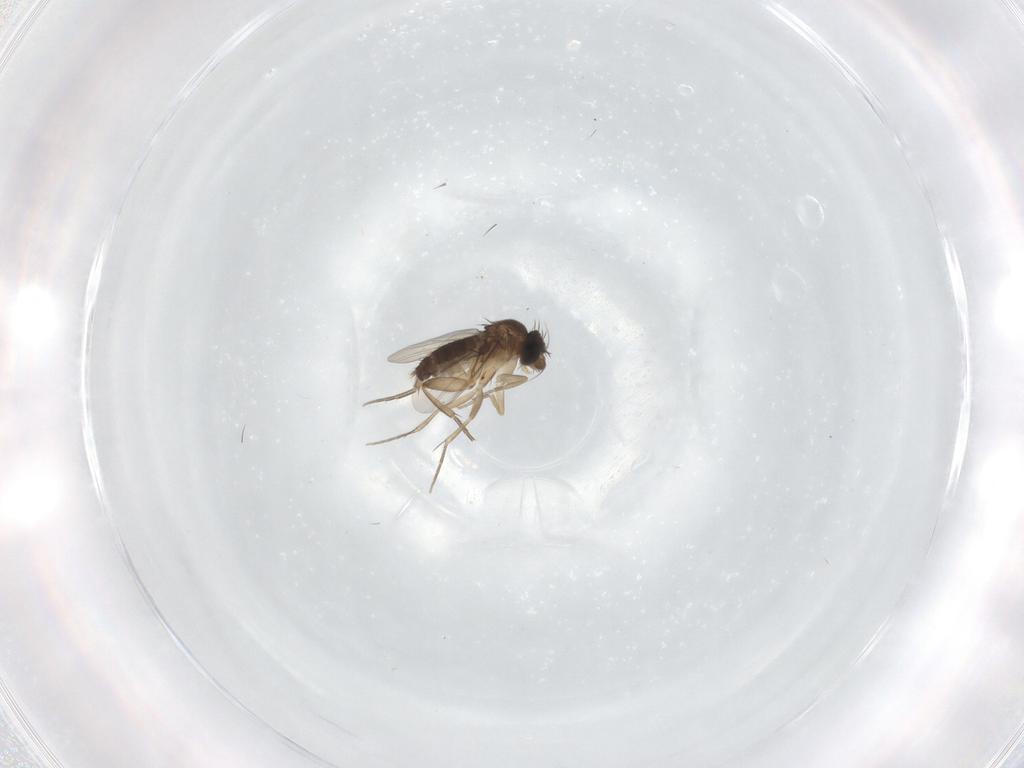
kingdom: Animalia
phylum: Arthropoda
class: Insecta
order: Diptera
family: Phoridae
